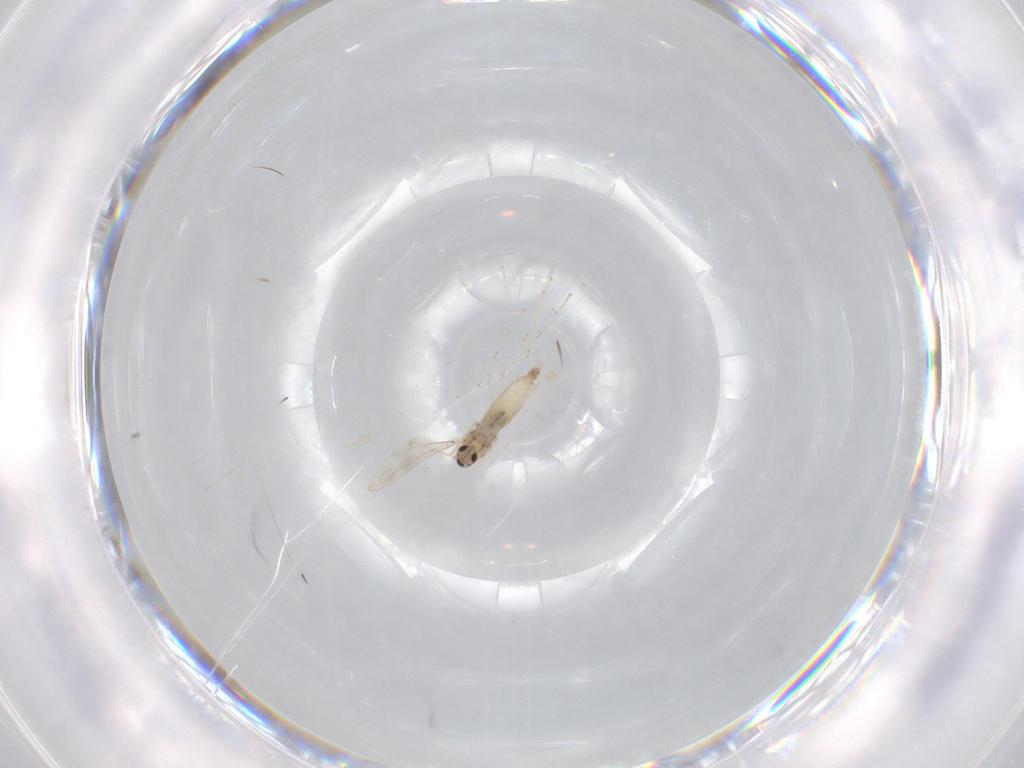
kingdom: Animalia
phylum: Arthropoda
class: Insecta
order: Diptera
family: Cecidomyiidae
